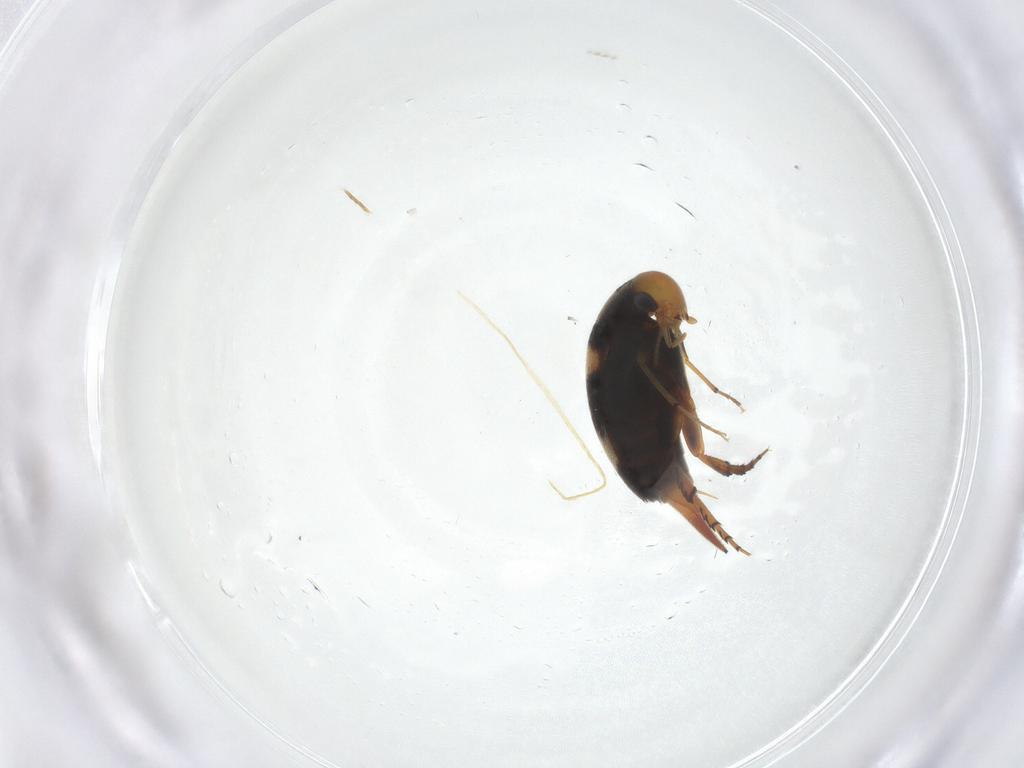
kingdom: Animalia
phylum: Arthropoda
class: Insecta
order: Coleoptera
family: Mordellidae
